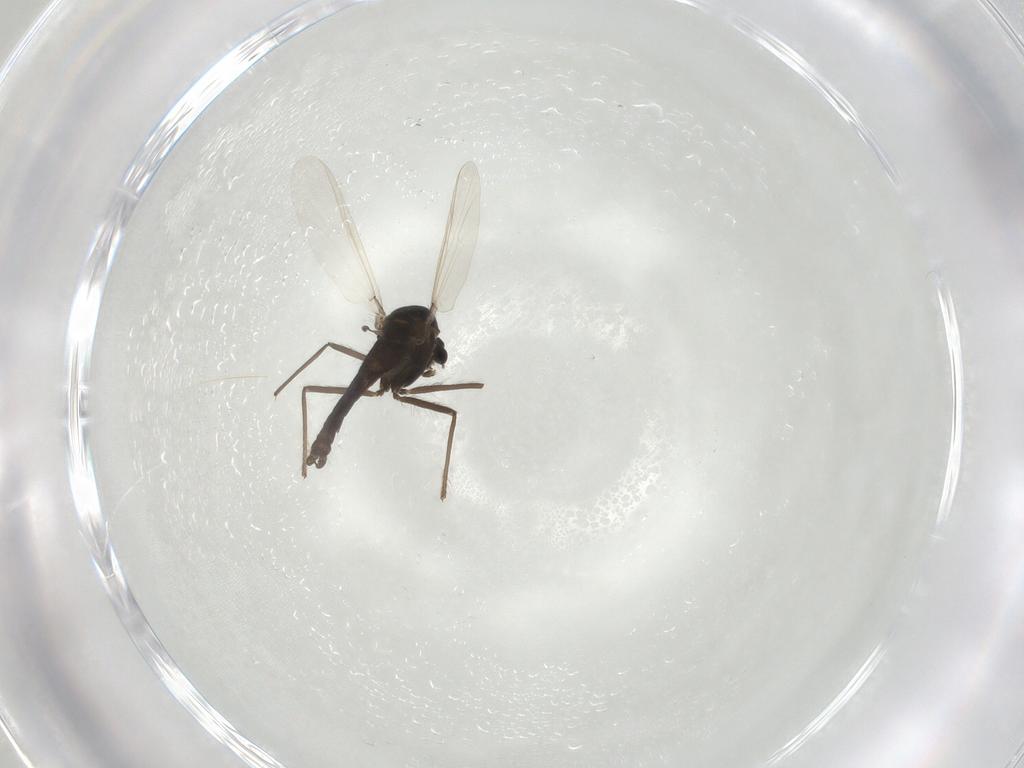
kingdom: Animalia
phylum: Arthropoda
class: Insecta
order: Diptera
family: Chironomidae
